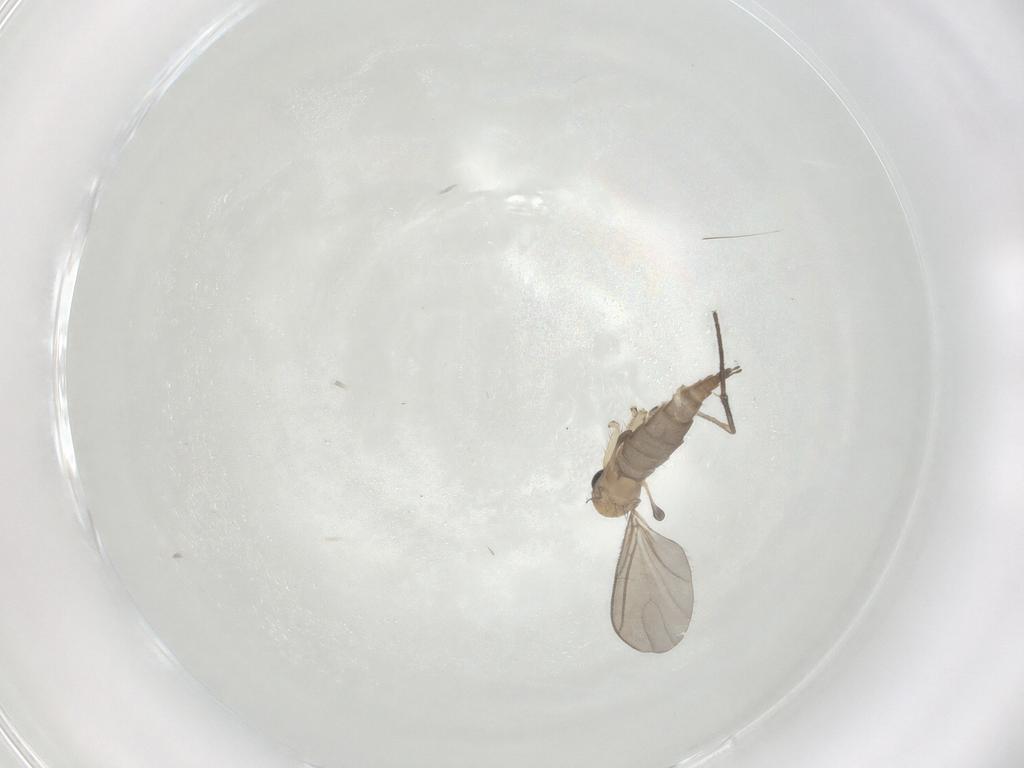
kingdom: Animalia
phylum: Arthropoda
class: Insecta
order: Diptera
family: Sciaridae
